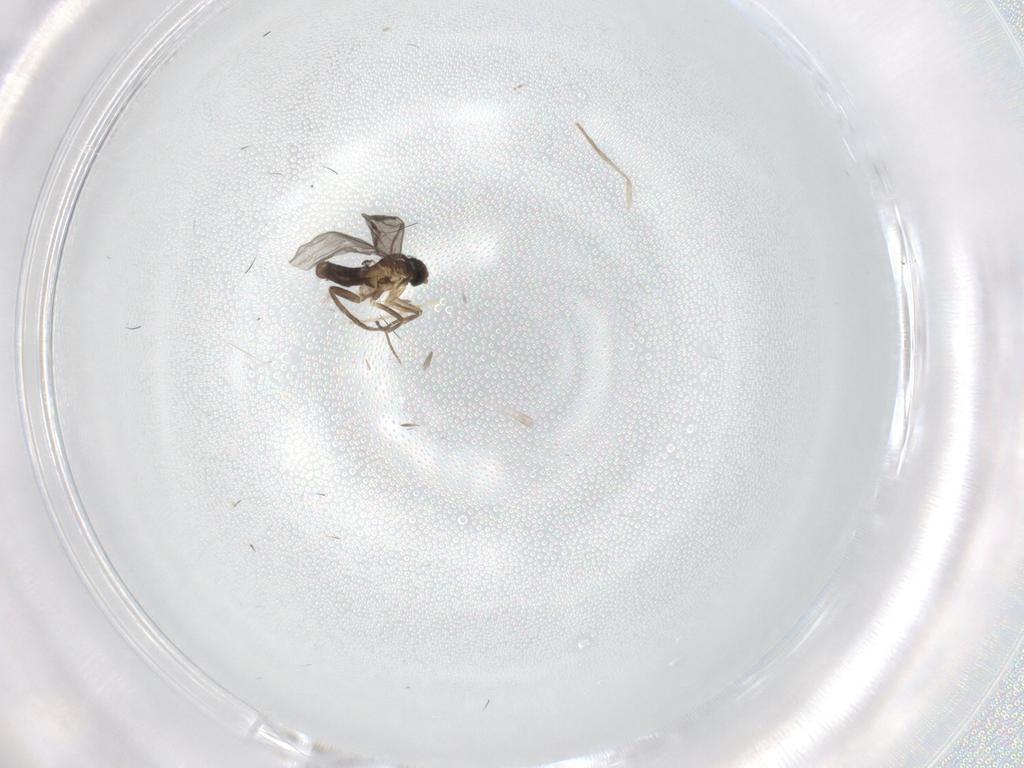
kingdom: Animalia
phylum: Arthropoda
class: Insecta
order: Diptera
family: Cecidomyiidae
